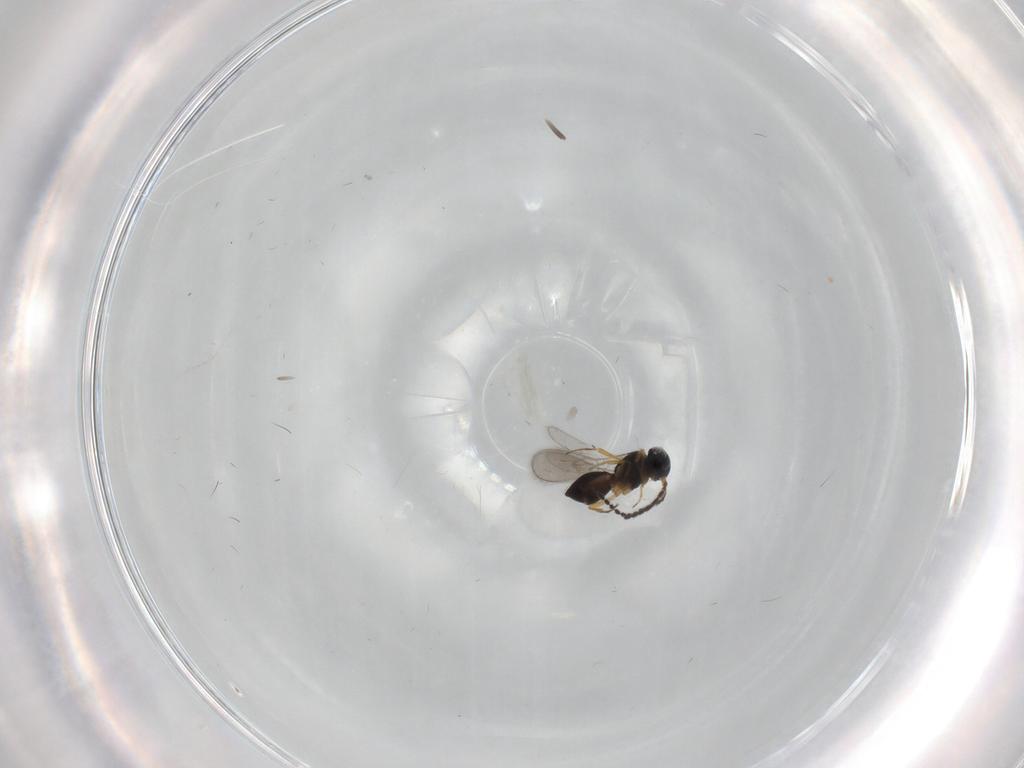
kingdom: Animalia
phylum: Arthropoda
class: Insecta
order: Hymenoptera
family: Scelionidae
